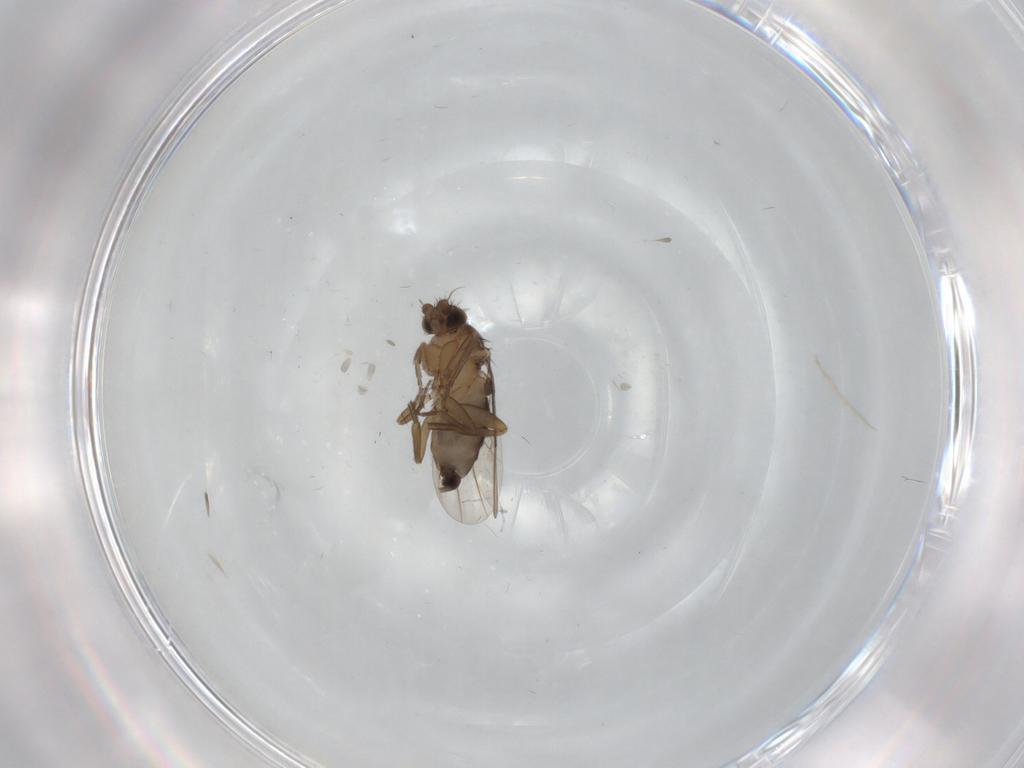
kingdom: Animalia
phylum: Arthropoda
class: Insecta
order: Diptera
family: Phoridae
